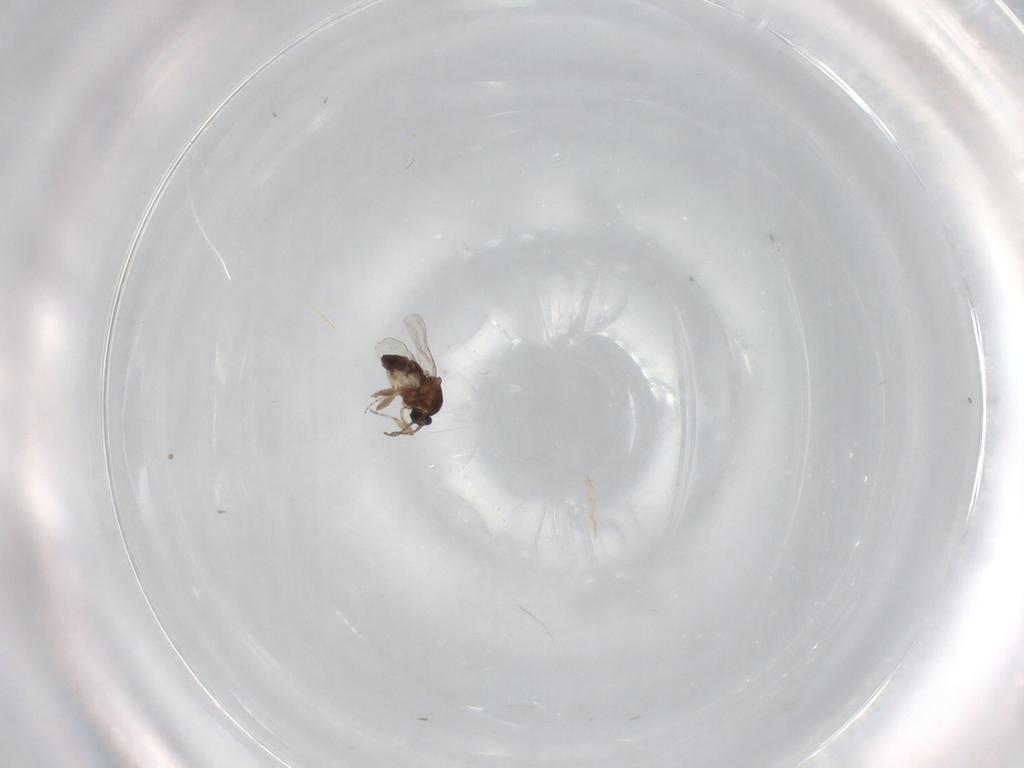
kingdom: Animalia
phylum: Arthropoda
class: Insecta
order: Diptera
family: Ceratopogonidae
